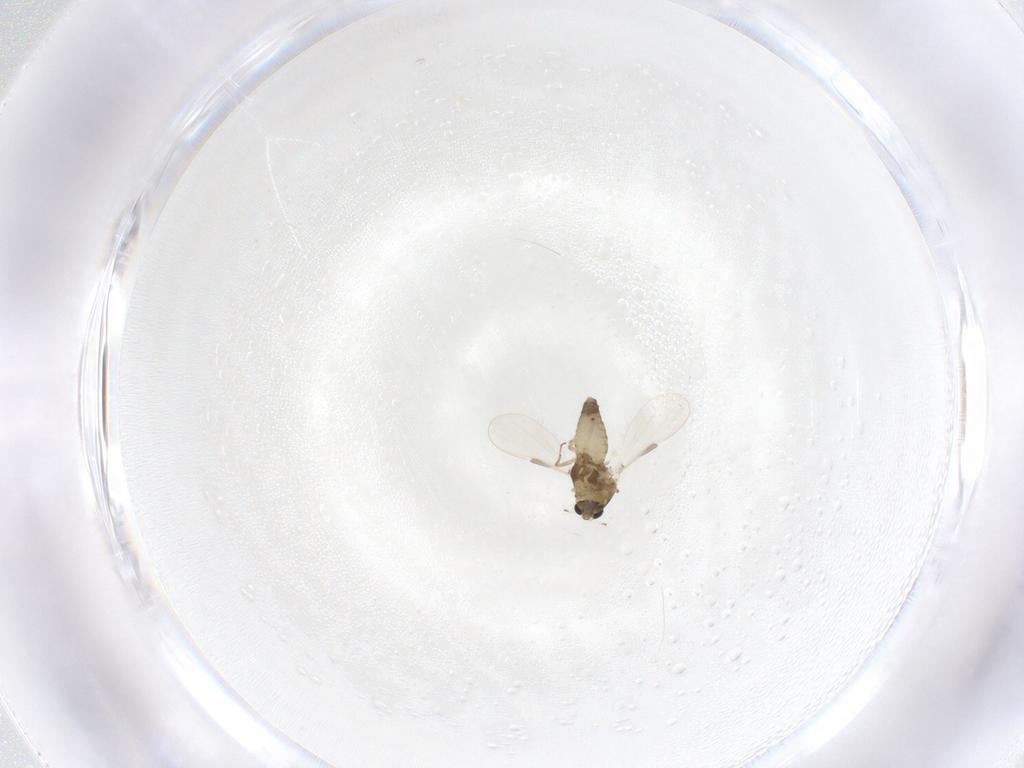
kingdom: Animalia
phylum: Arthropoda
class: Insecta
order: Diptera
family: Chironomidae
